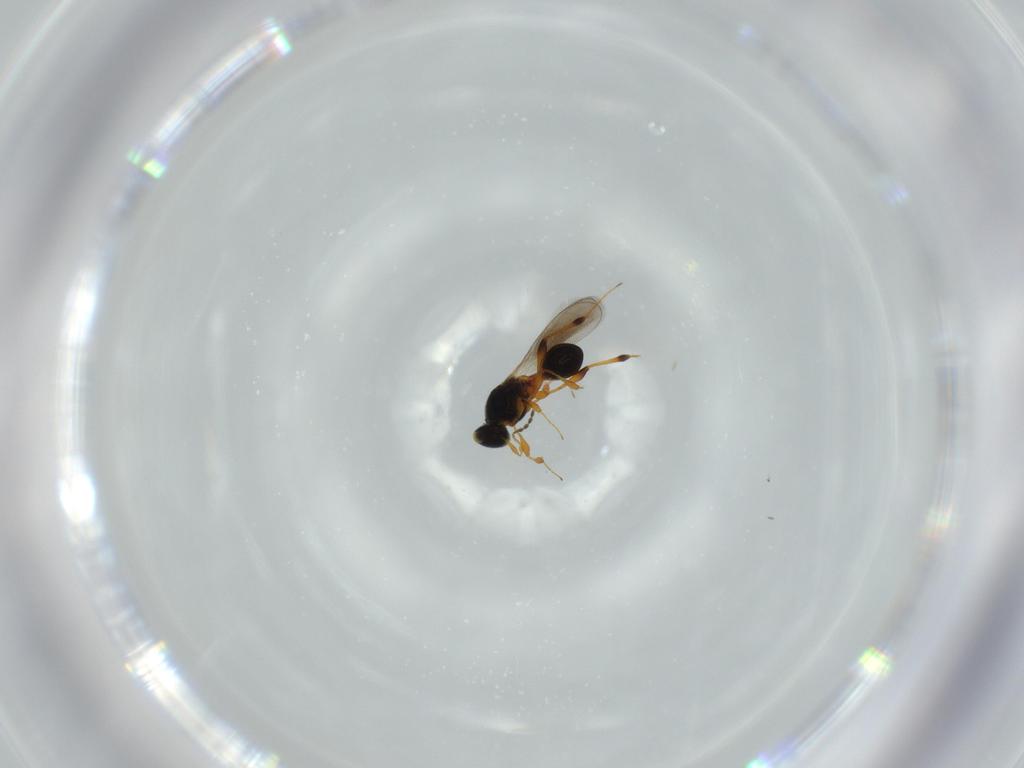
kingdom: Animalia
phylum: Arthropoda
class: Insecta
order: Hymenoptera
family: Platygastridae
